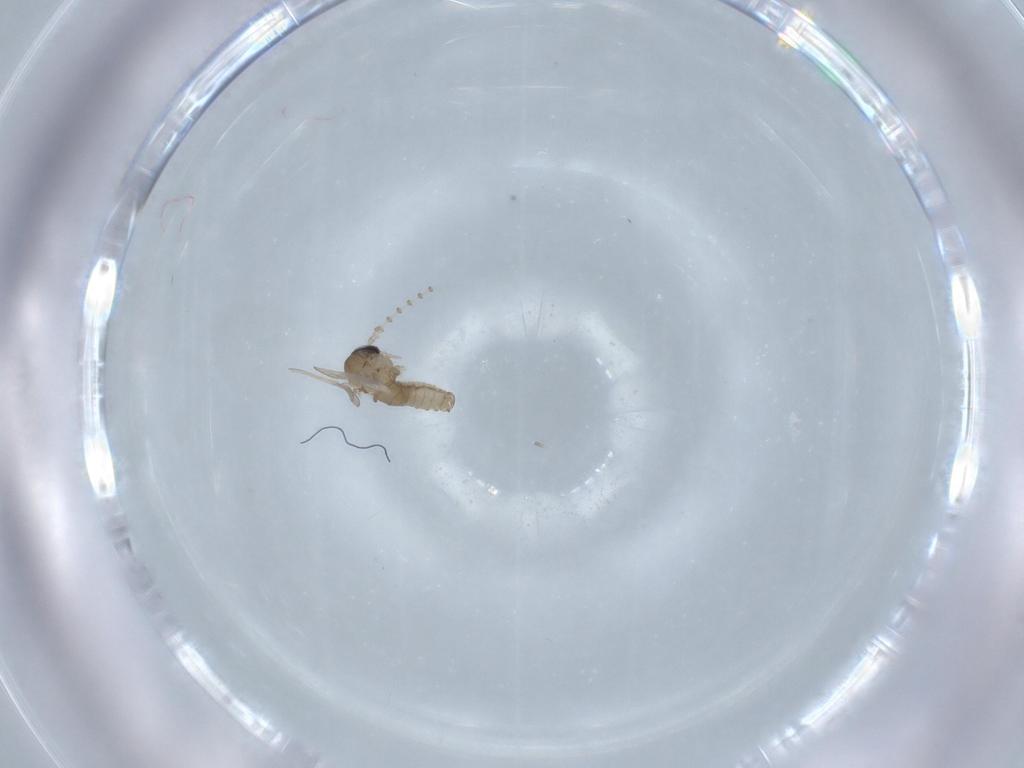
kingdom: Animalia
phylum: Arthropoda
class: Insecta
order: Diptera
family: Psychodidae
